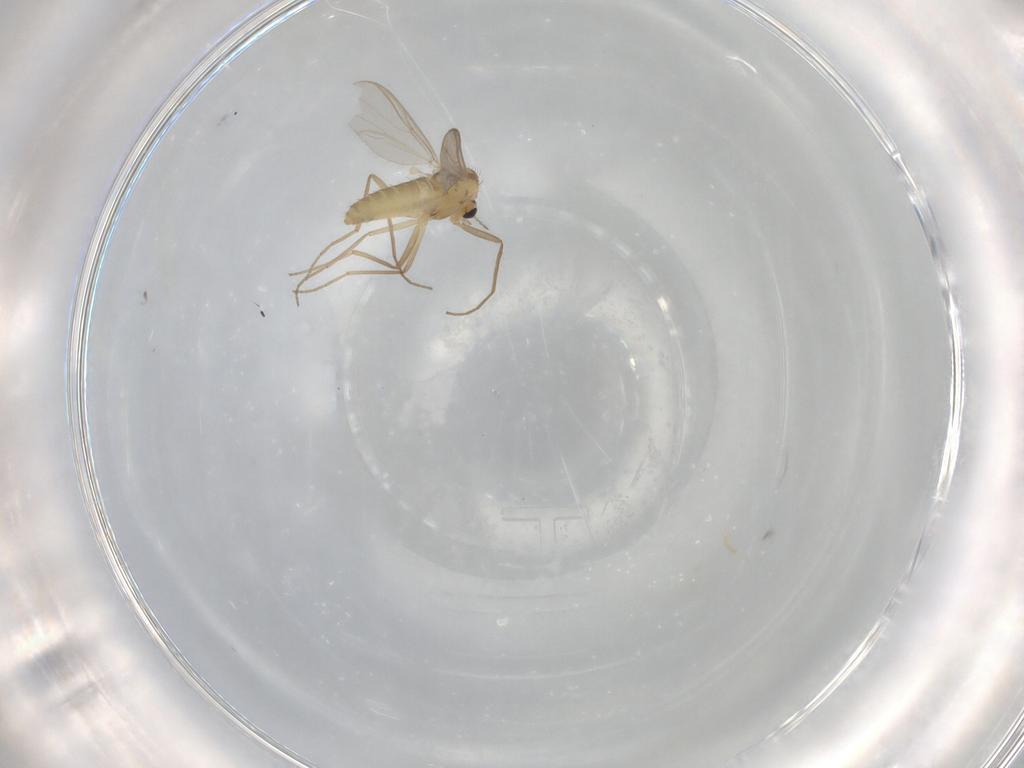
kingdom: Animalia
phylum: Arthropoda
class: Insecta
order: Diptera
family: Chironomidae
